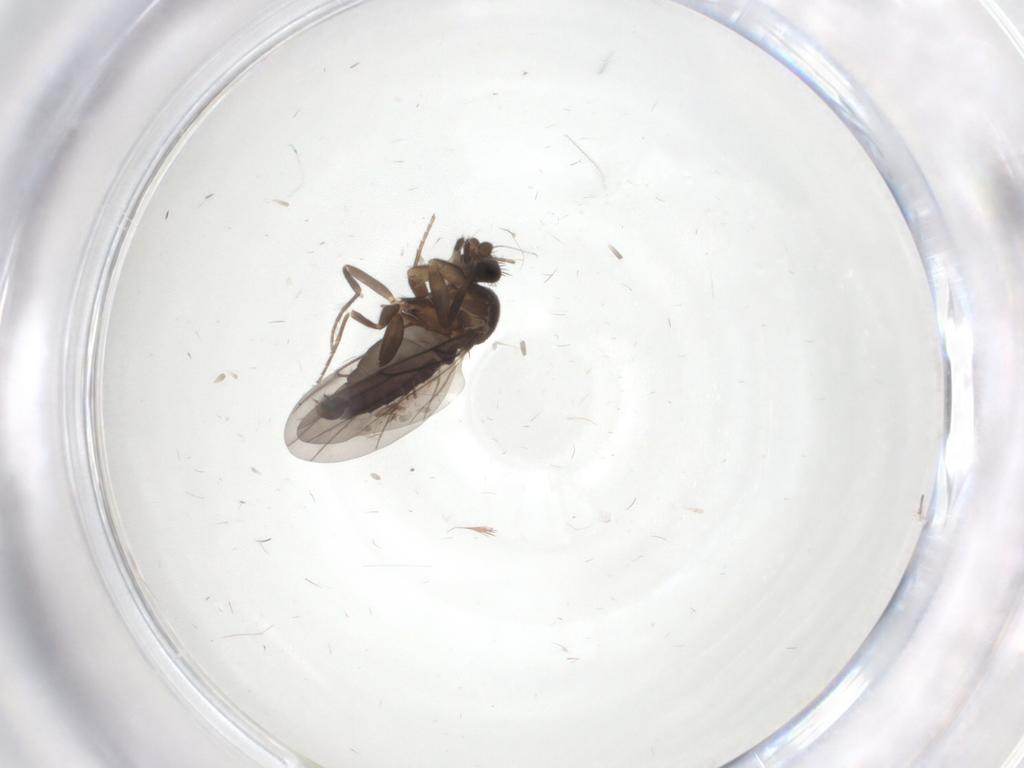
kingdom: Animalia
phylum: Arthropoda
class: Insecta
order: Diptera
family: Phoridae
